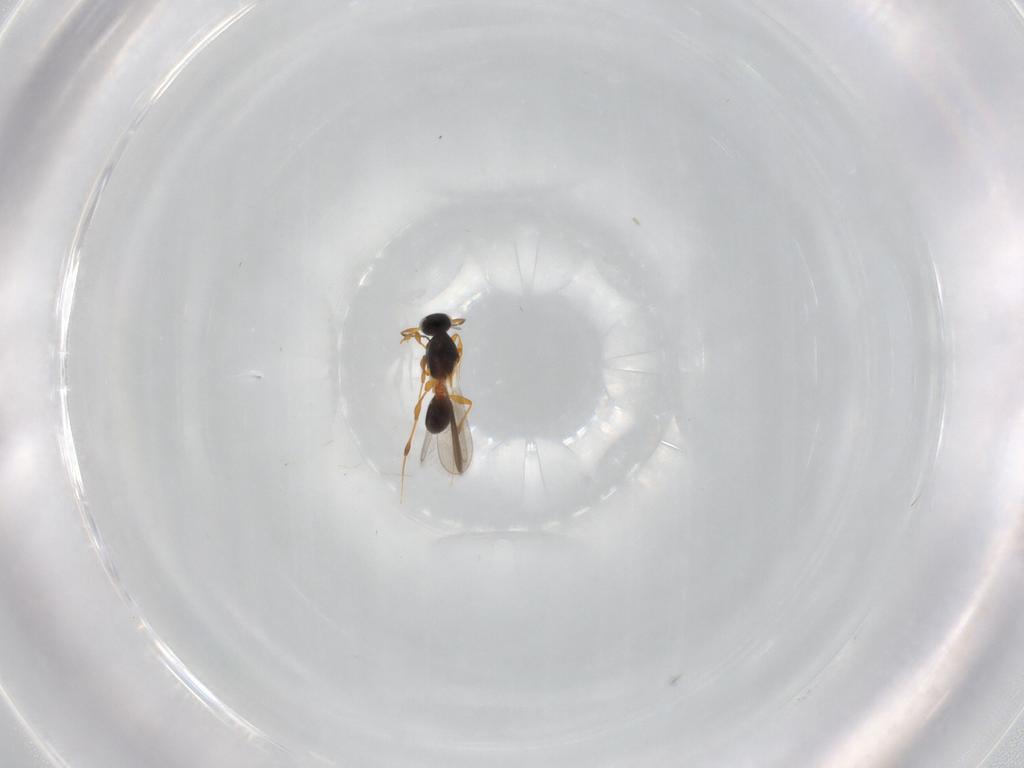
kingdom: Animalia
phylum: Arthropoda
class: Insecta
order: Hymenoptera
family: Platygastridae
